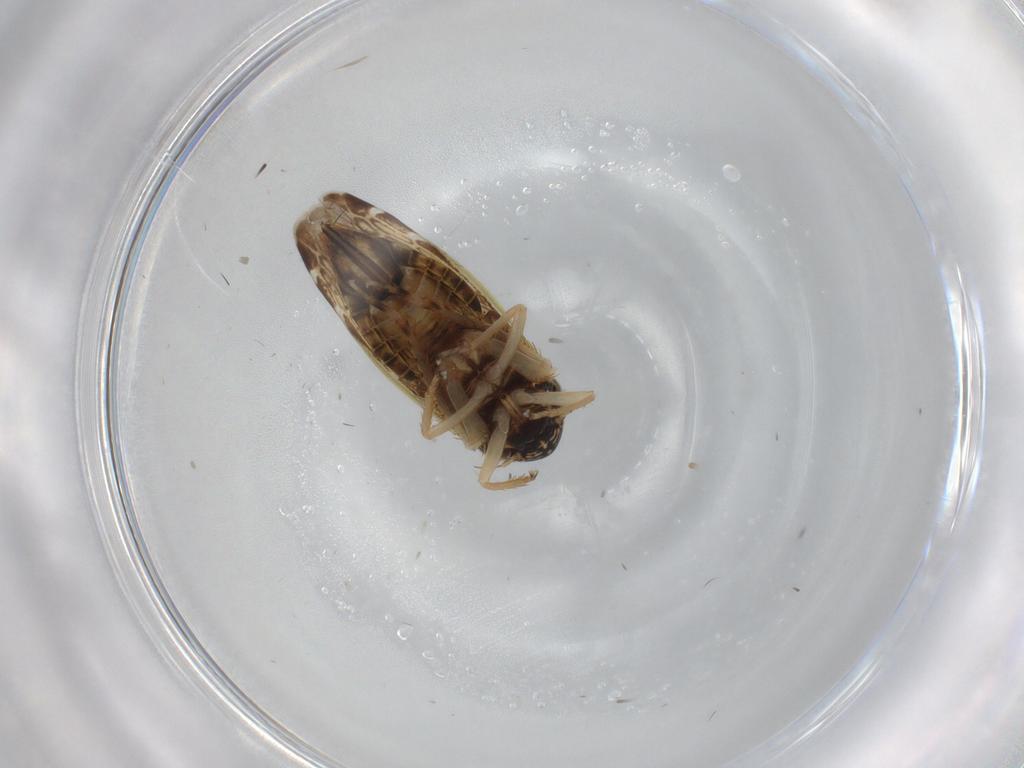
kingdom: Animalia
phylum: Arthropoda
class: Insecta
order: Hemiptera
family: Cicadellidae
